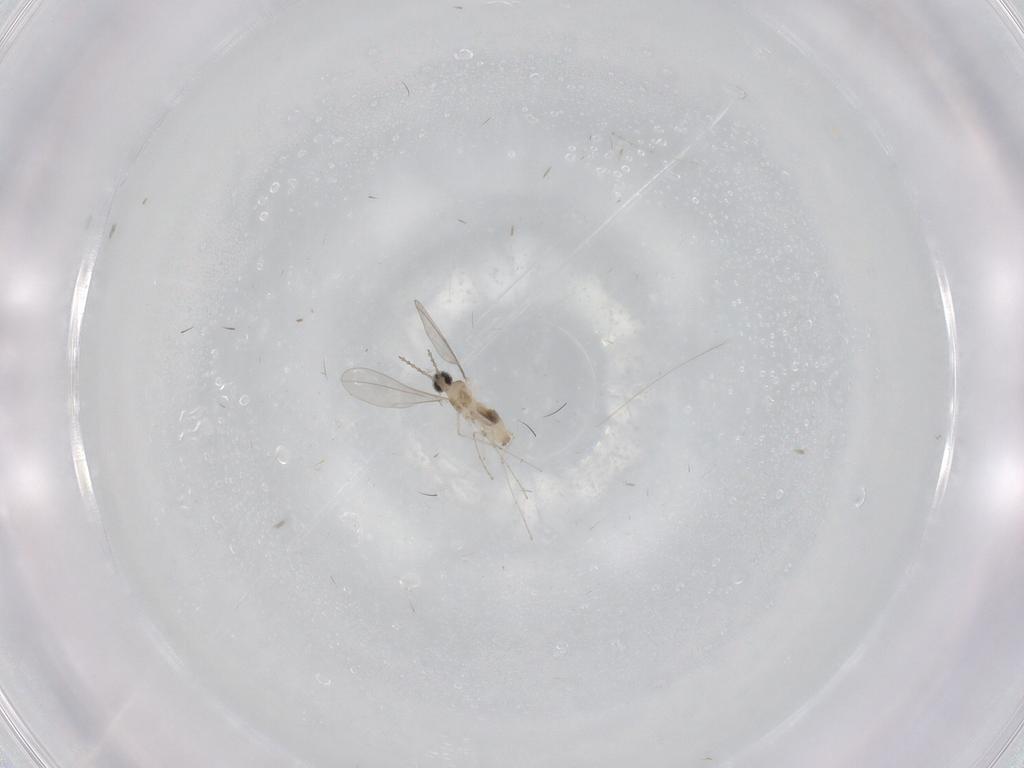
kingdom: Animalia
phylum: Arthropoda
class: Insecta
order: Diptera
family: Cecidomyiidae
